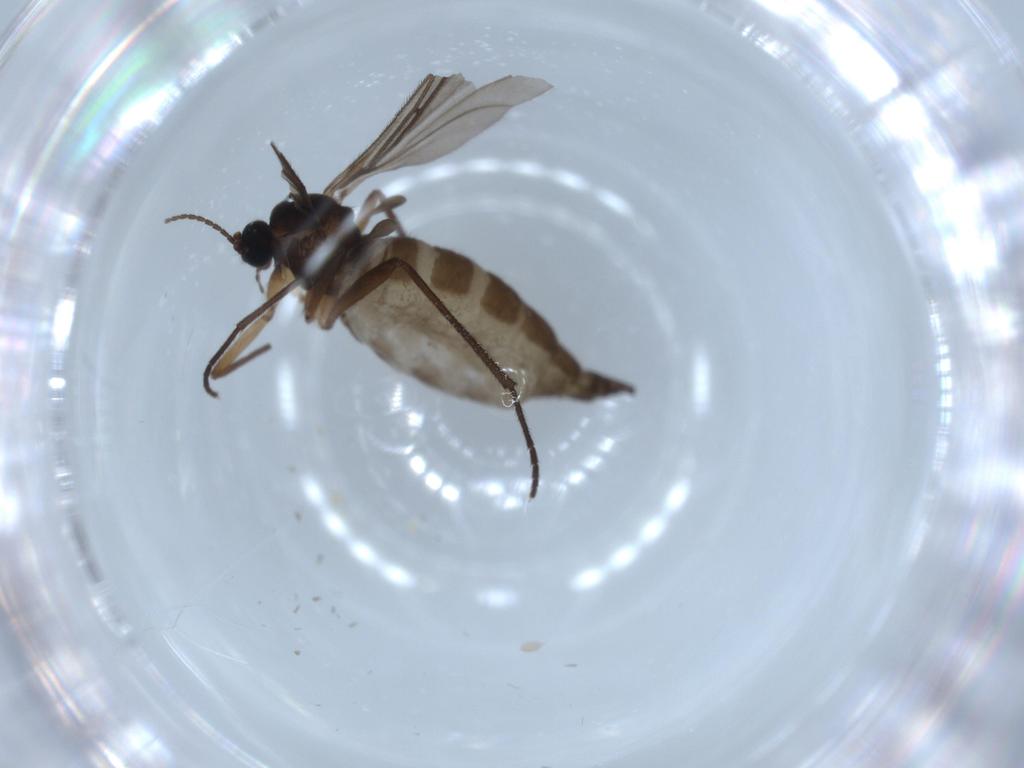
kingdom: Animalia
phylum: Arthropoda
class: Insecta
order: Diptera
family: Sciaridae
